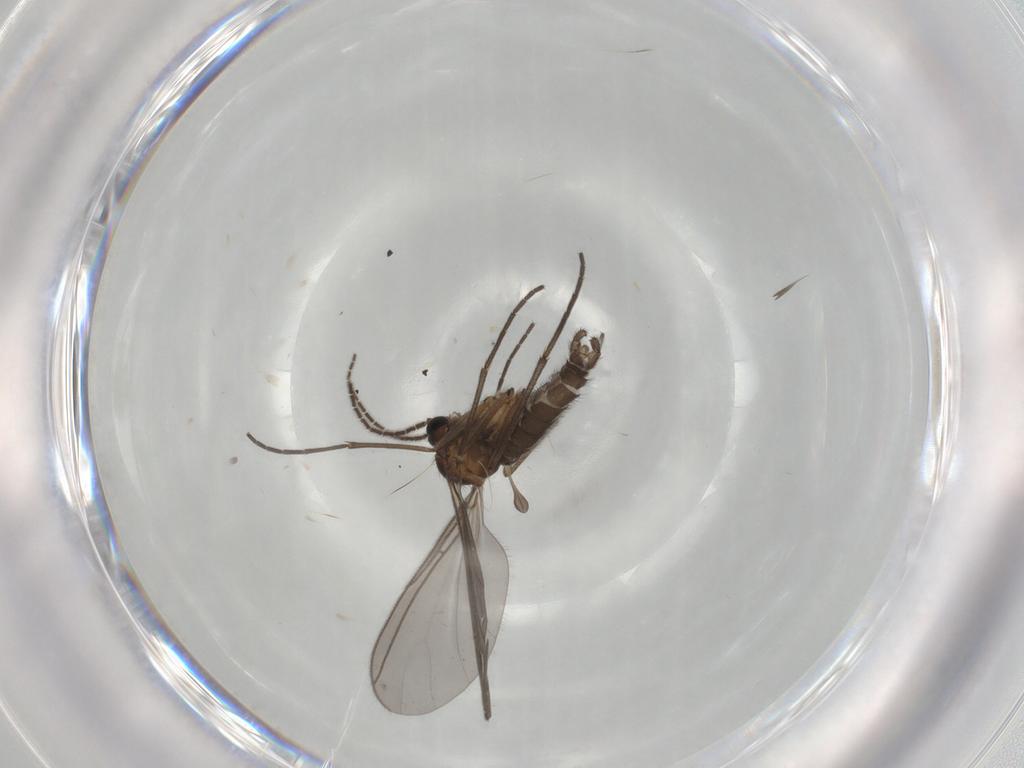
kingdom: Animalia
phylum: Arthropoda
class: Insecta
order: Diptera
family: Sciaridae
